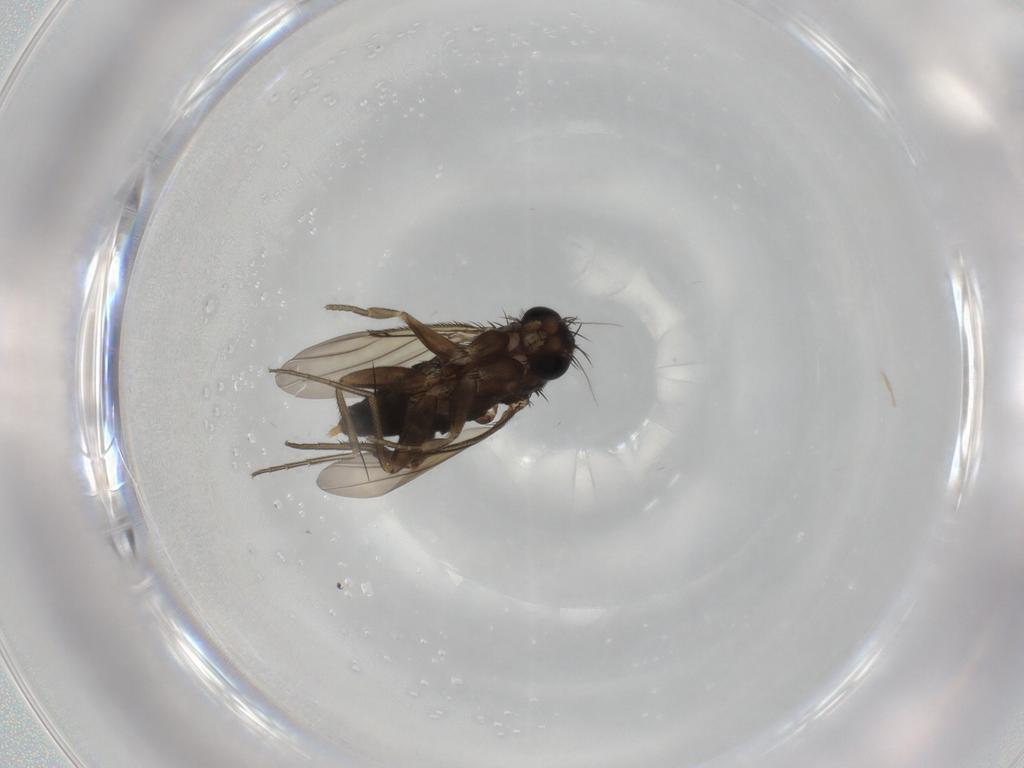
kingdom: Animalia
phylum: Arthropoda
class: Insecta
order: Diptera
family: Phoridae
